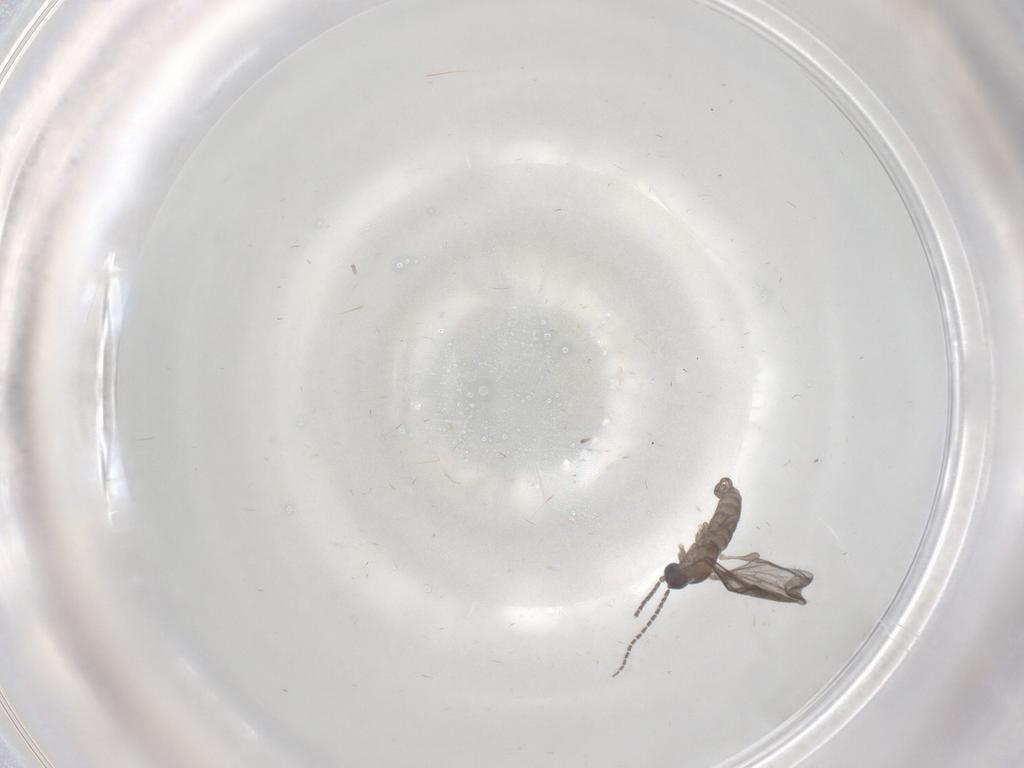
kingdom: Animalia
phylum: Arthropoda
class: Insecta
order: Diptera
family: Sciaridae
